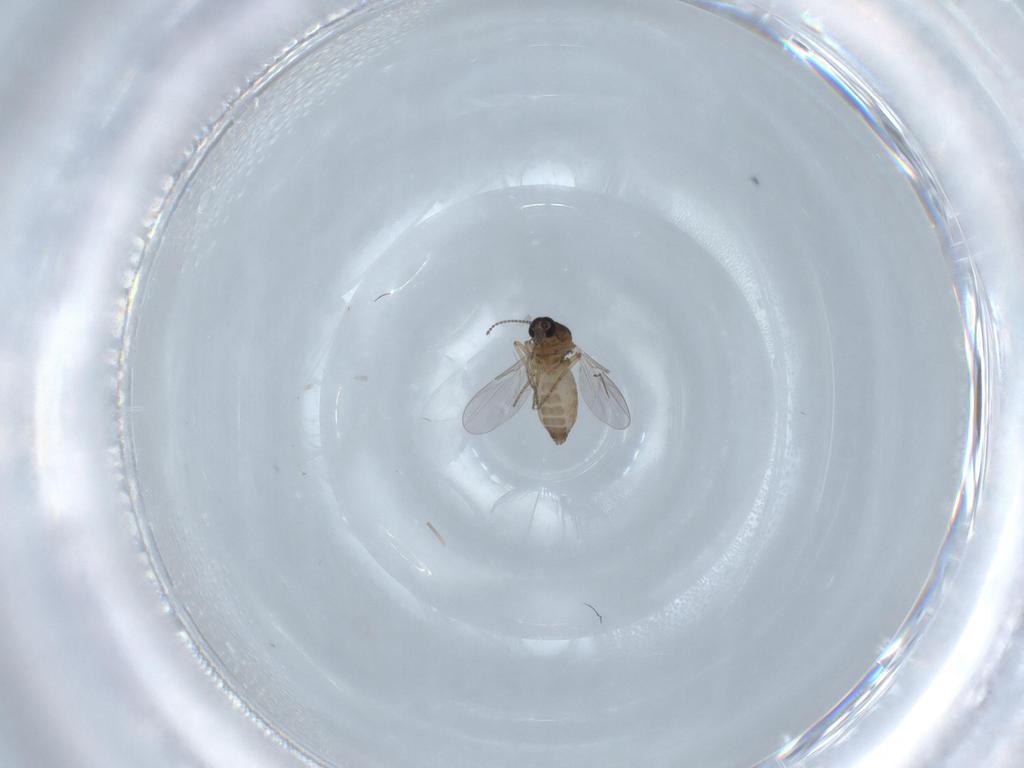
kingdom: Animalia
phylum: Arthropoda
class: Insecta
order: Diptera
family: Ceratopogonidae
